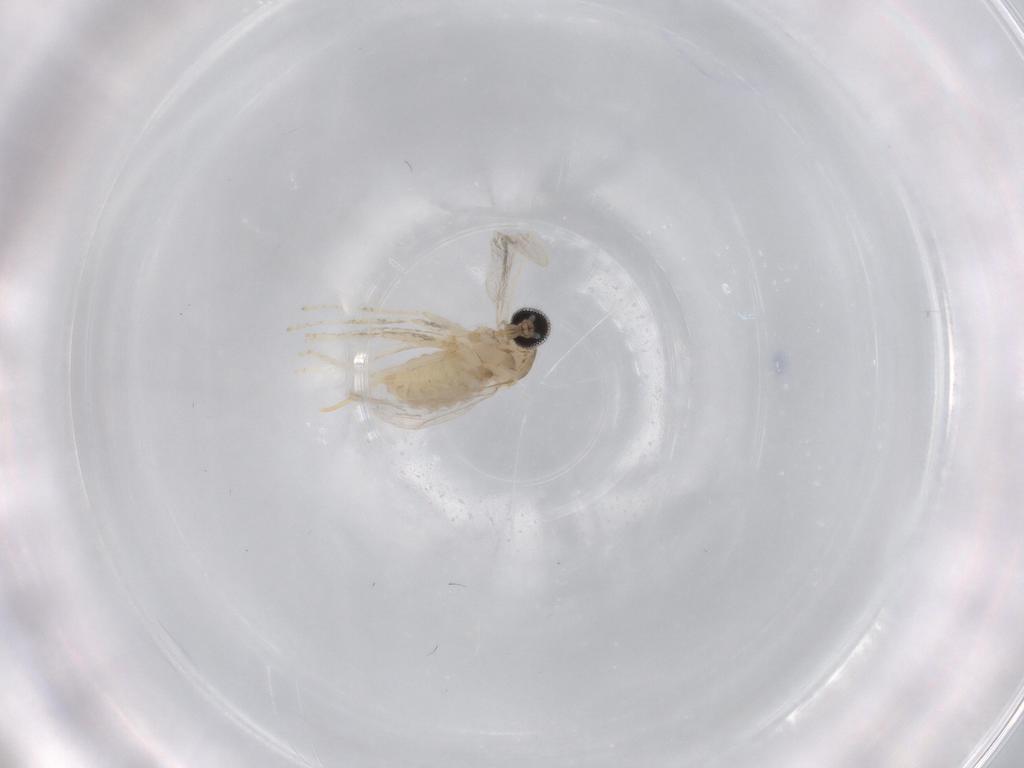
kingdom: Animalia
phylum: Arthropoda
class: Insecta
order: Diptera
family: Cecidomyiidae
